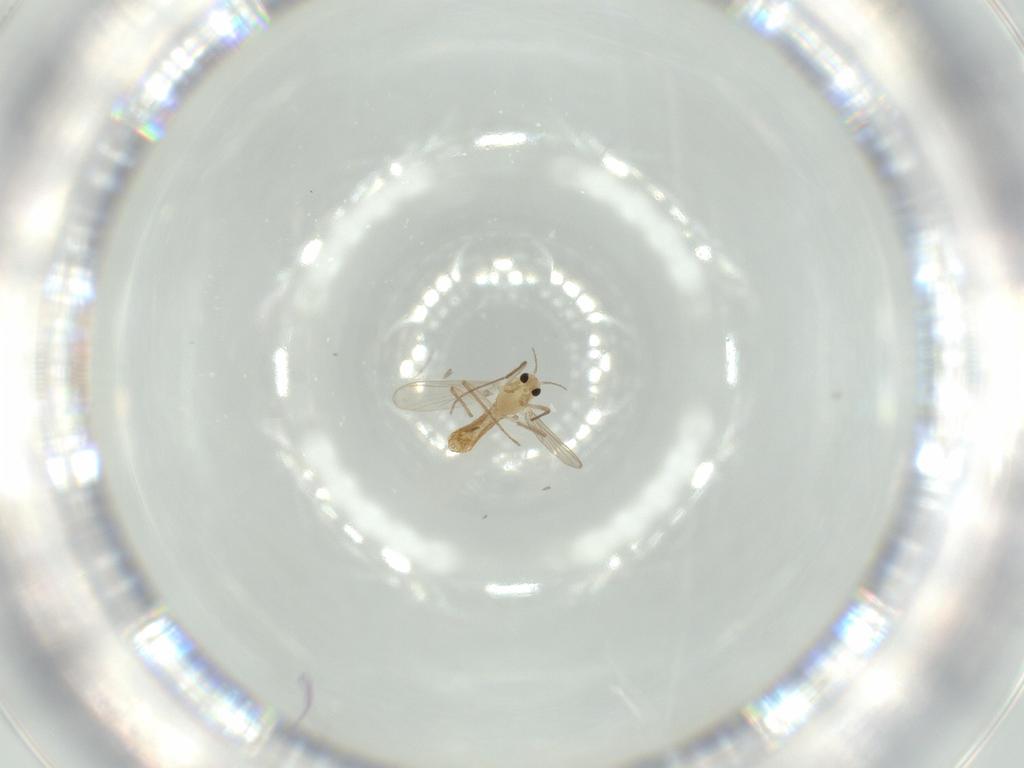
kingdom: Animalia
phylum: Arthropoda
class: Insecta
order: Diptera
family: Chironomidae
